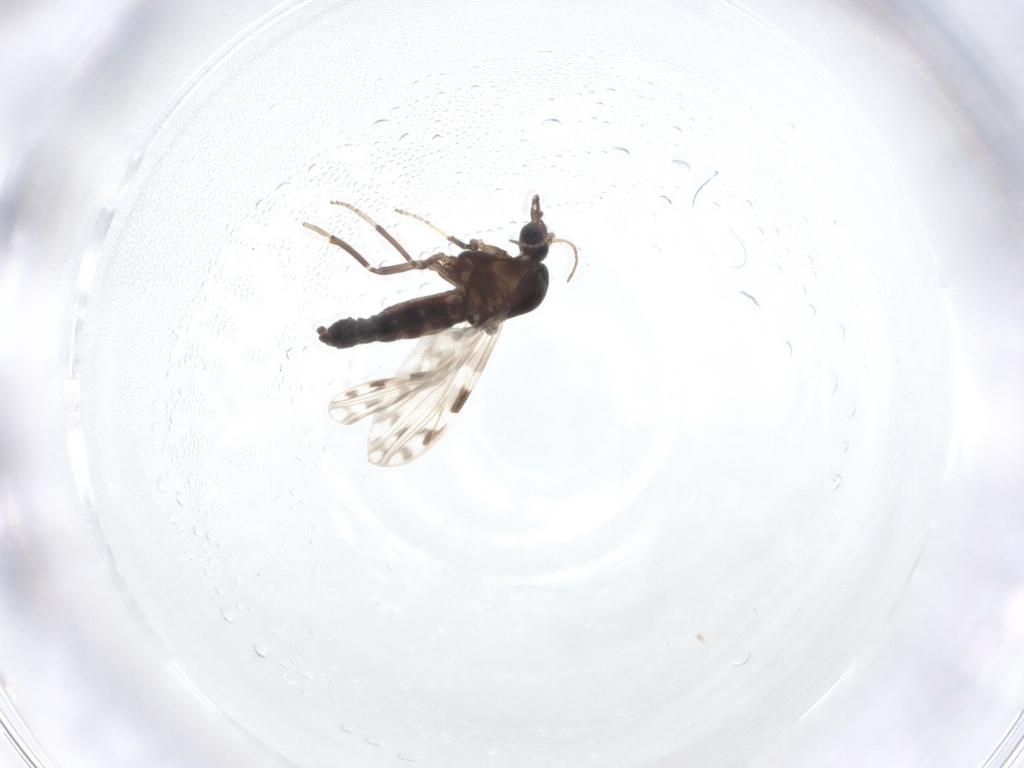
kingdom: Animalia
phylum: Arthropoda
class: Insecta
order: Diptera
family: Ceratopogonidae
